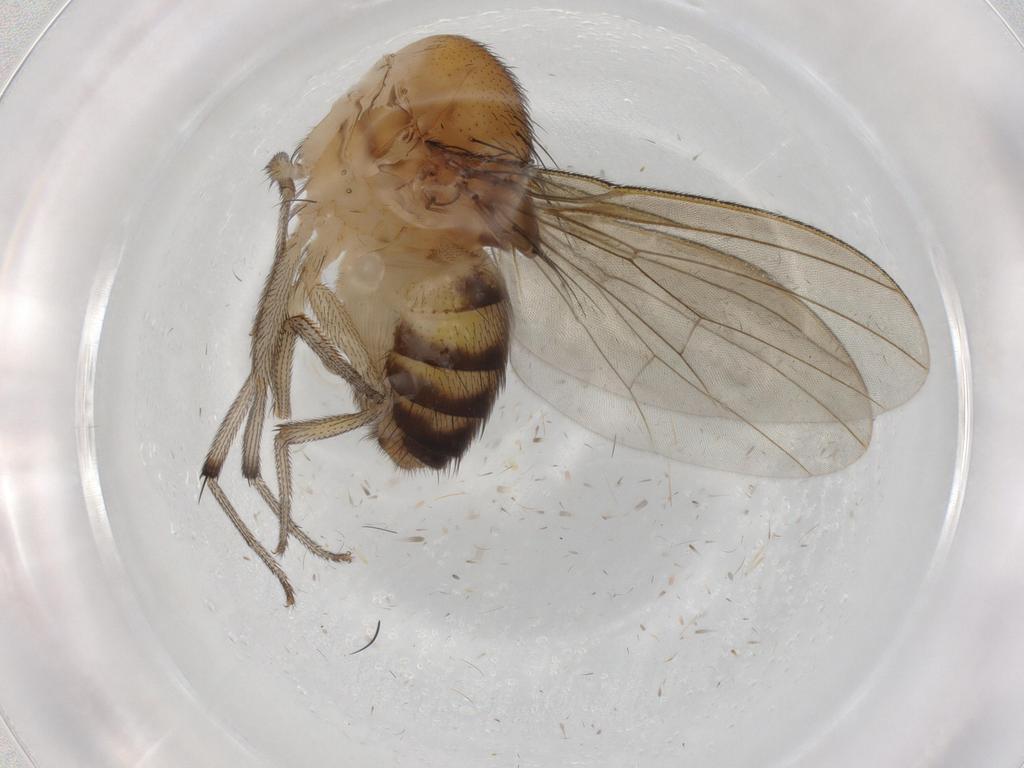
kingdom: Animalia
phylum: Arthropoda
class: Insecta
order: Diptera
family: Drosophilidae
